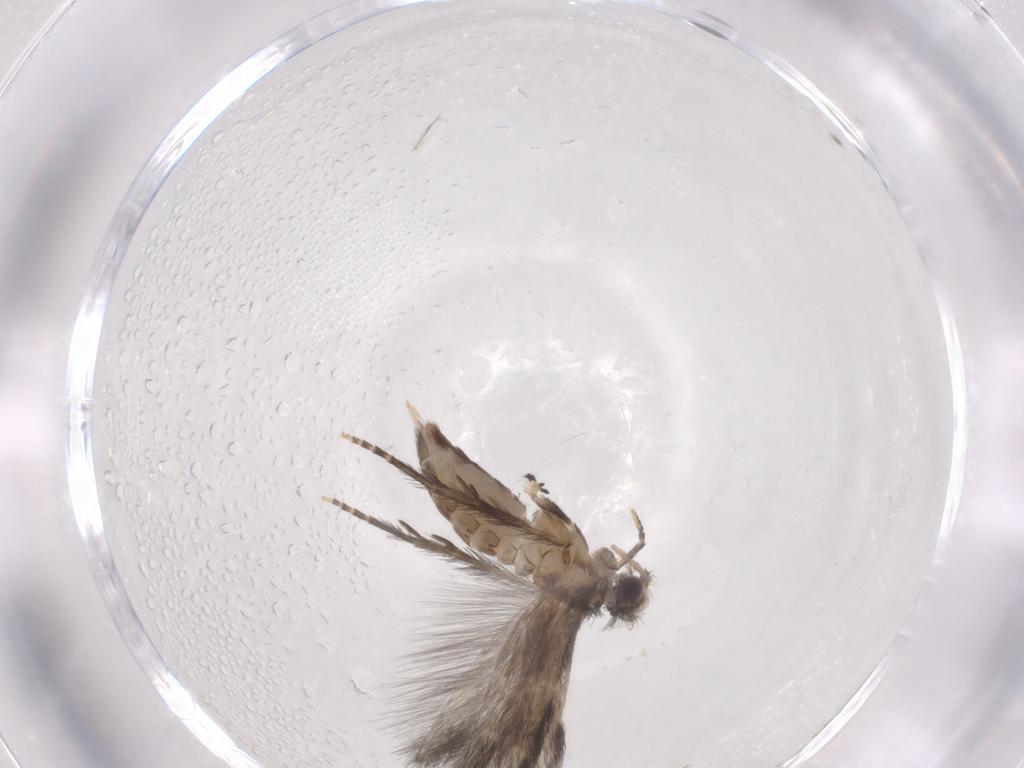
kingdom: Animalia
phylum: Arthropoda
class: Insecta
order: Trichoptera
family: Hydroptilidae
